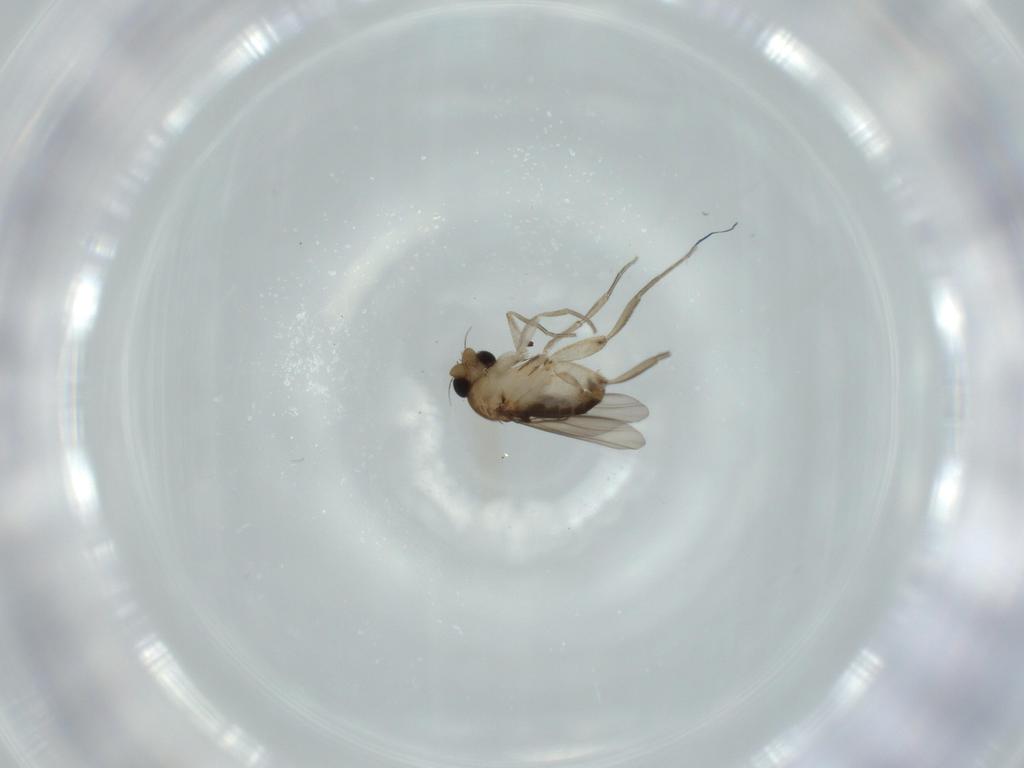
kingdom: Animalia
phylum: Arthropoda
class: Insecta
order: Diptera
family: Phoridae
